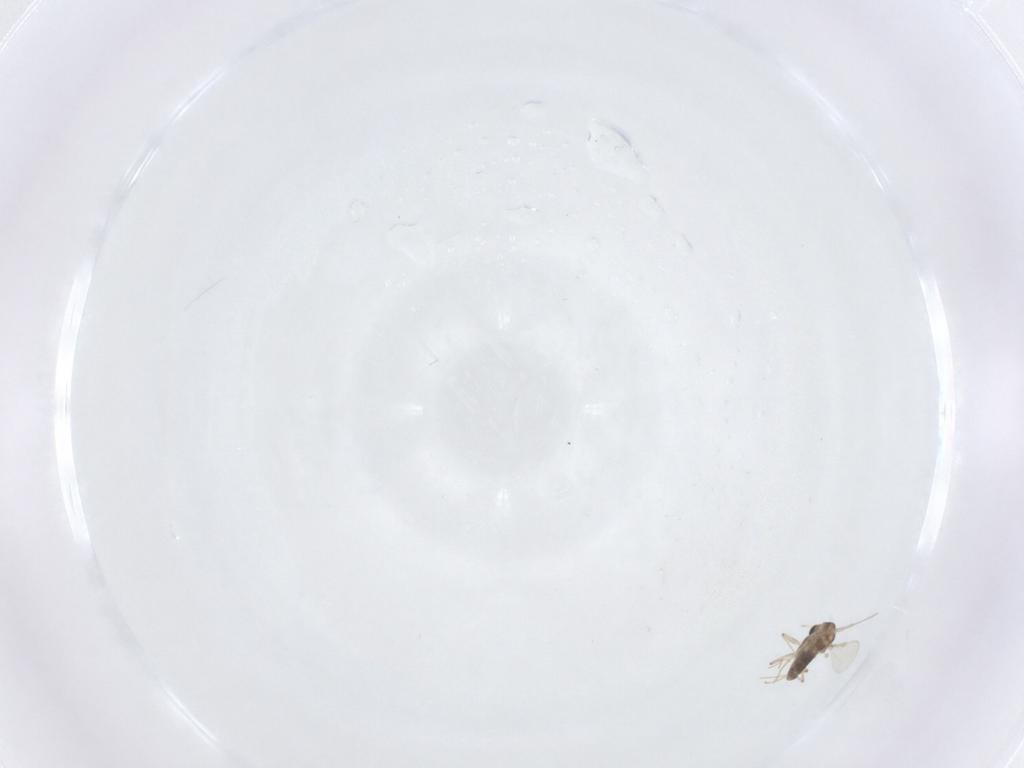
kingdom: Animalia
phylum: Arthropoda
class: Insecta
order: Diptera
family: Chironomidae
